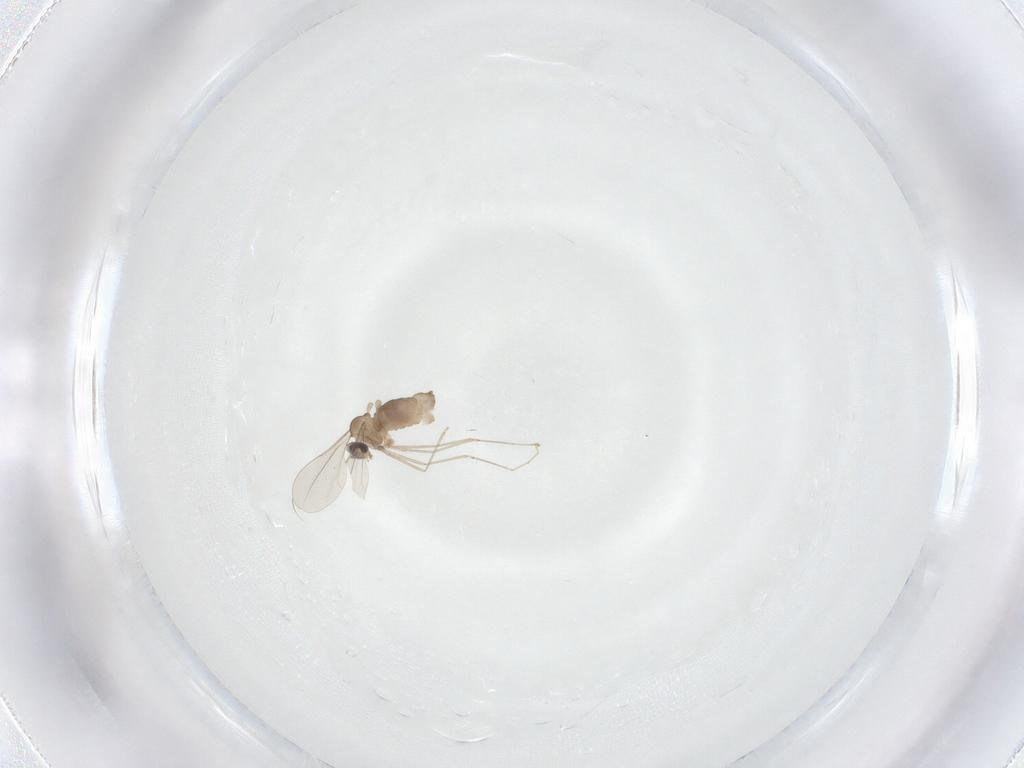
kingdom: Animalia
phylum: Arthropoda
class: Insecta
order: Diptera
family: Cecidomyiidae
